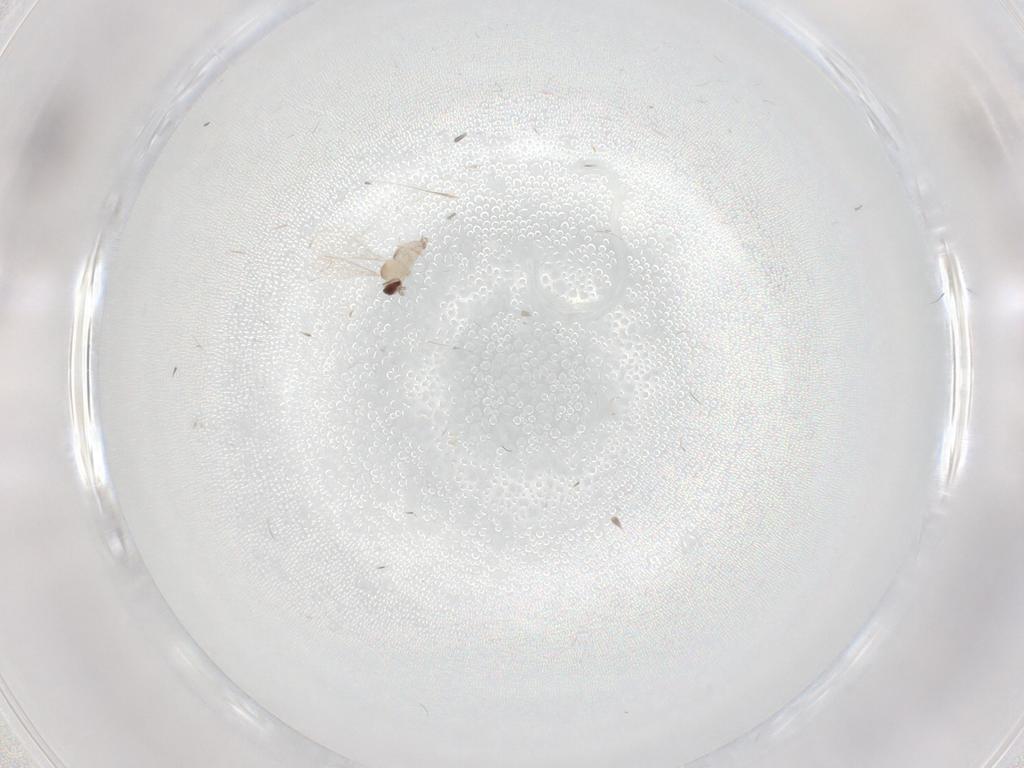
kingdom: Animalia
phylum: Arthropoda
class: Insecta
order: Diptera
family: Cecidomyiidae
